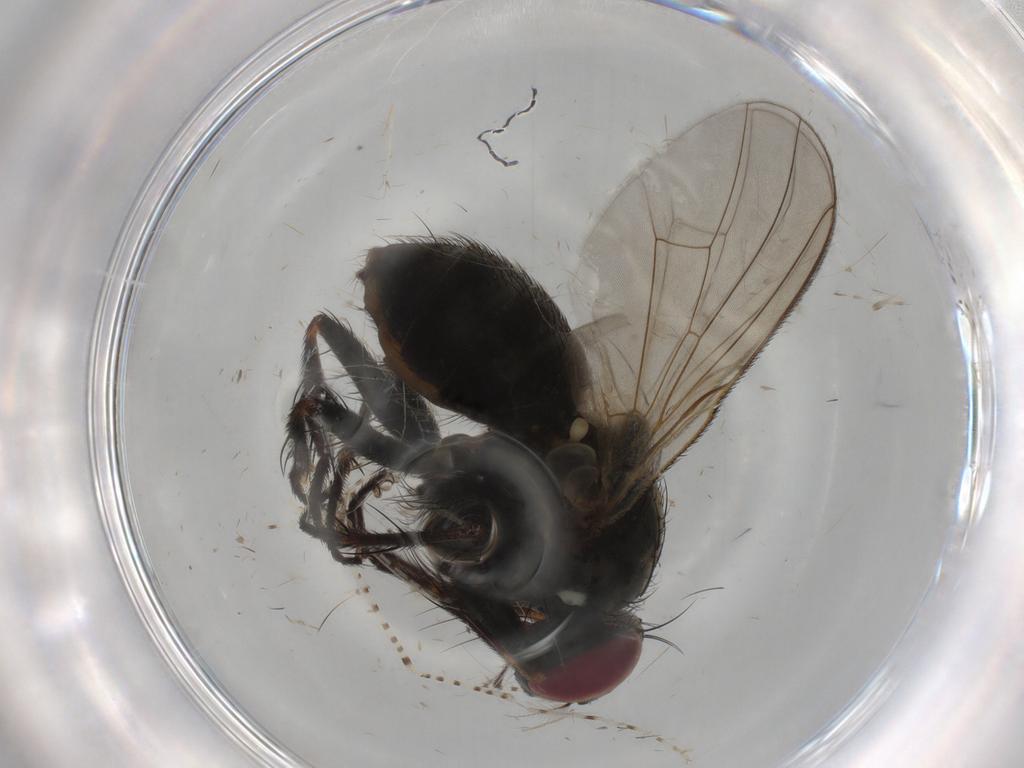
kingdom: Animalia
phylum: Arthropoda
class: Insecta
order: Diptera
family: Muscidae
